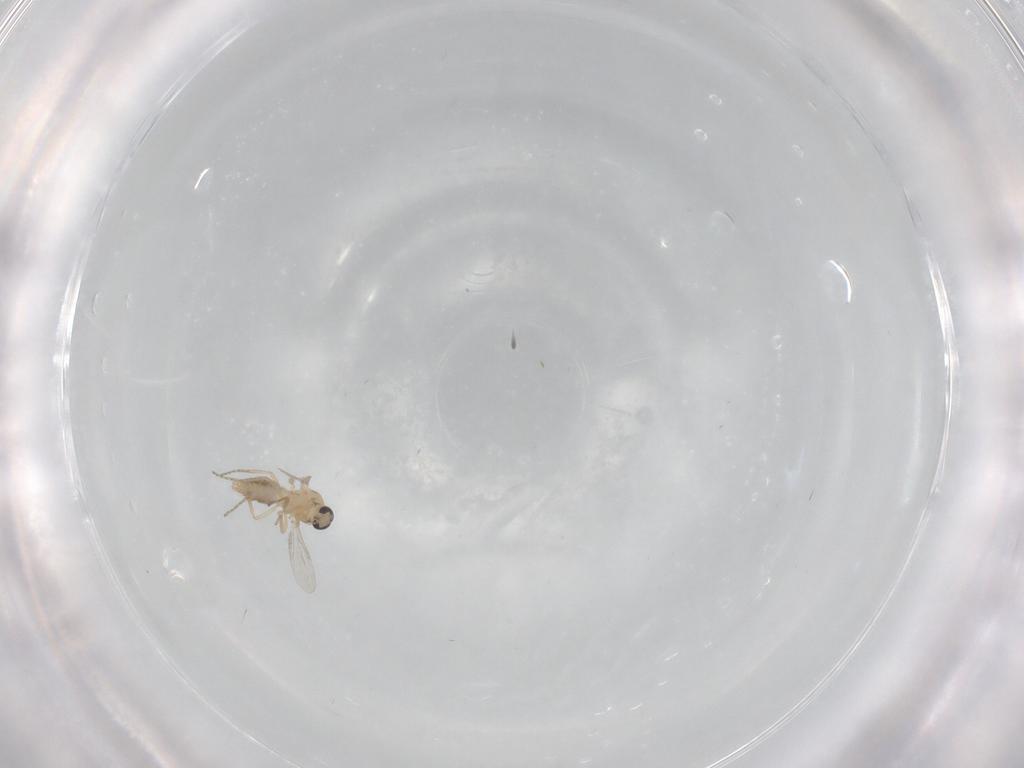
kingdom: Animalia
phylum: Arthropoda
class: Insecta
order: Diptera
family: Ceratopogonidae
